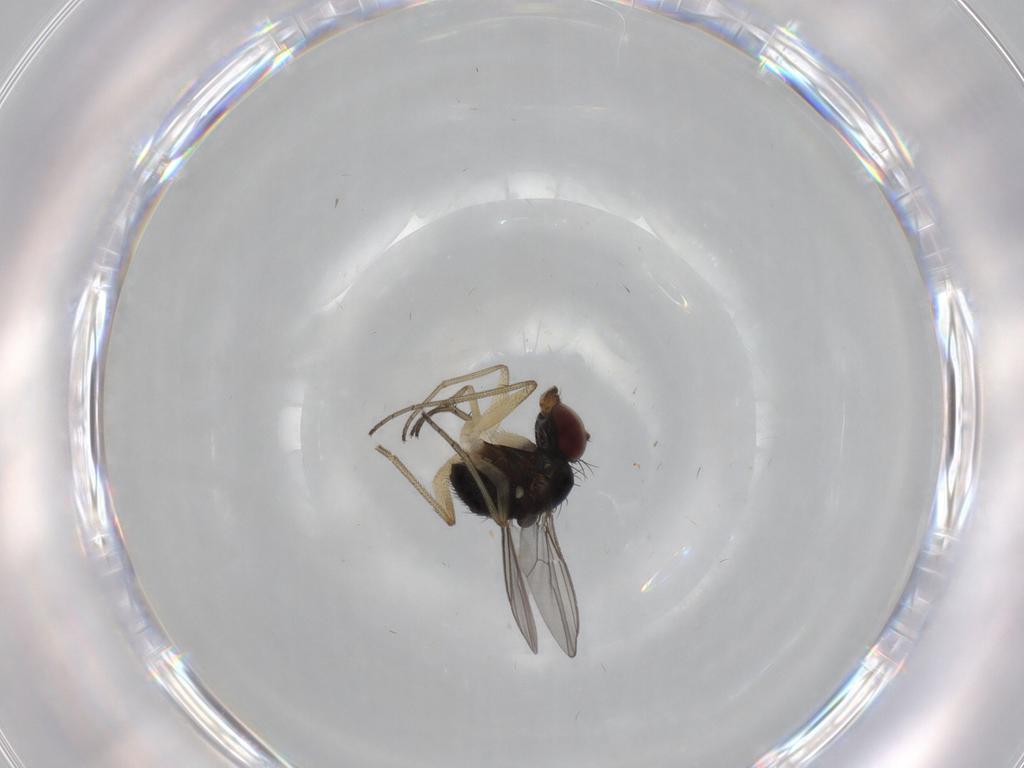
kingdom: Animalia
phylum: Arthropoda
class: Insecta
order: Diptera
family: Dolichopodidae
